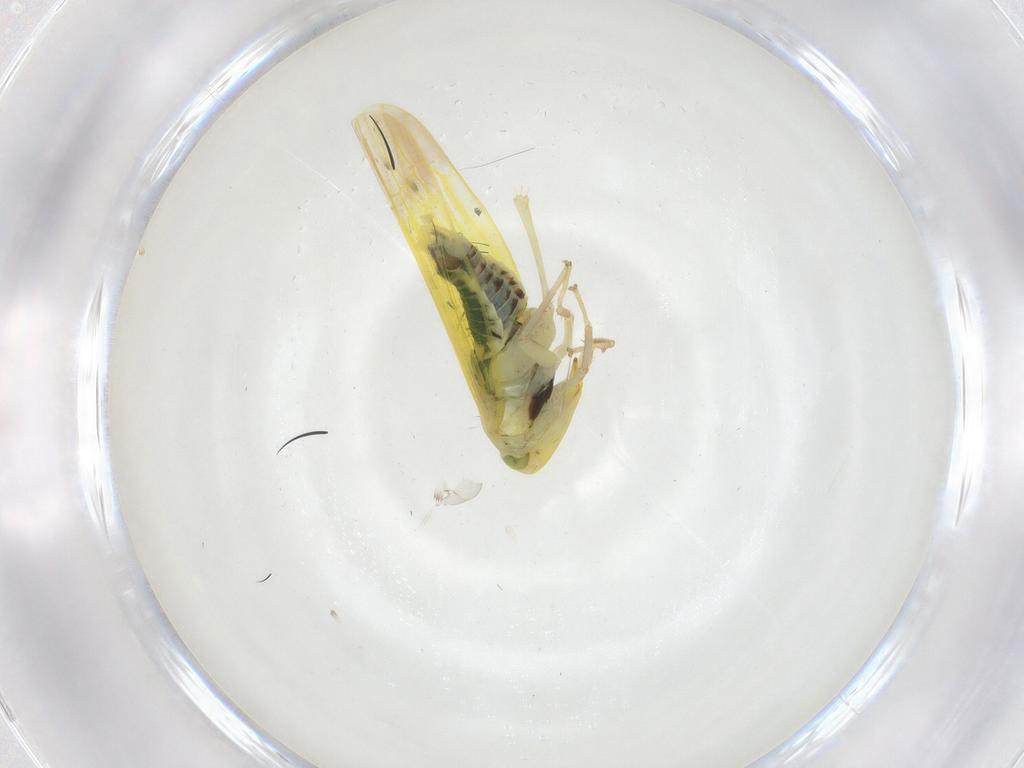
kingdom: Animalia
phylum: Arthropoda
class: Insecta
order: Hemiptera
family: Cicadellidae
